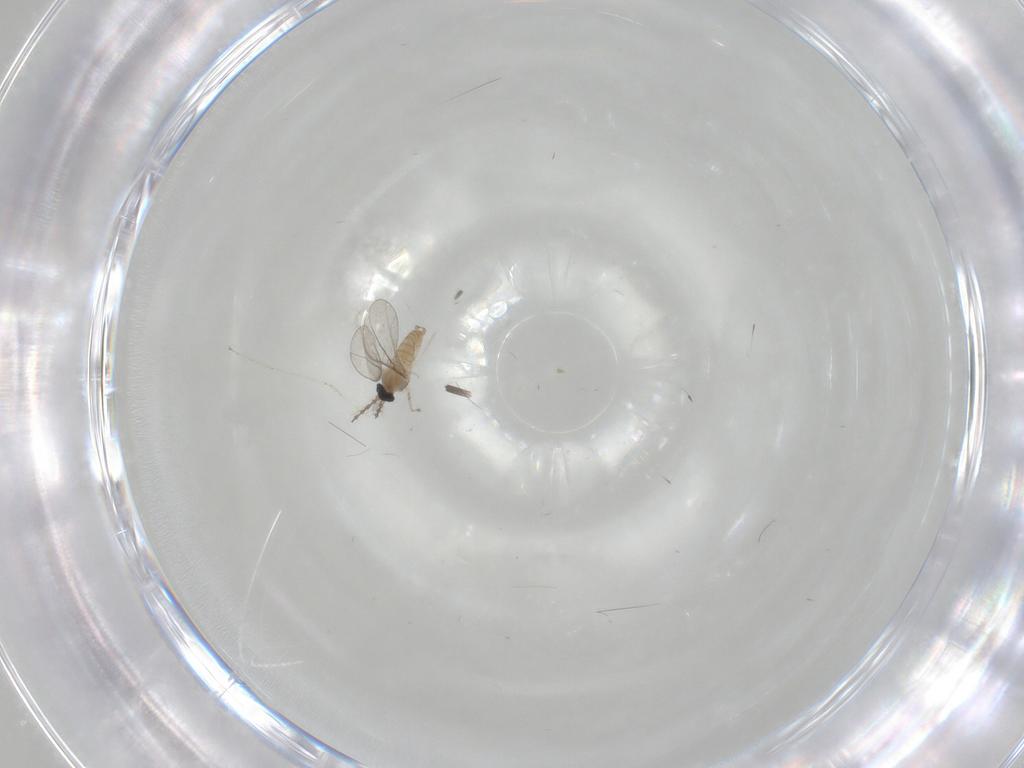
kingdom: Animalia
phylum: Arthropoda
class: Insecta
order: Diptera
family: Cecidomyiidae
